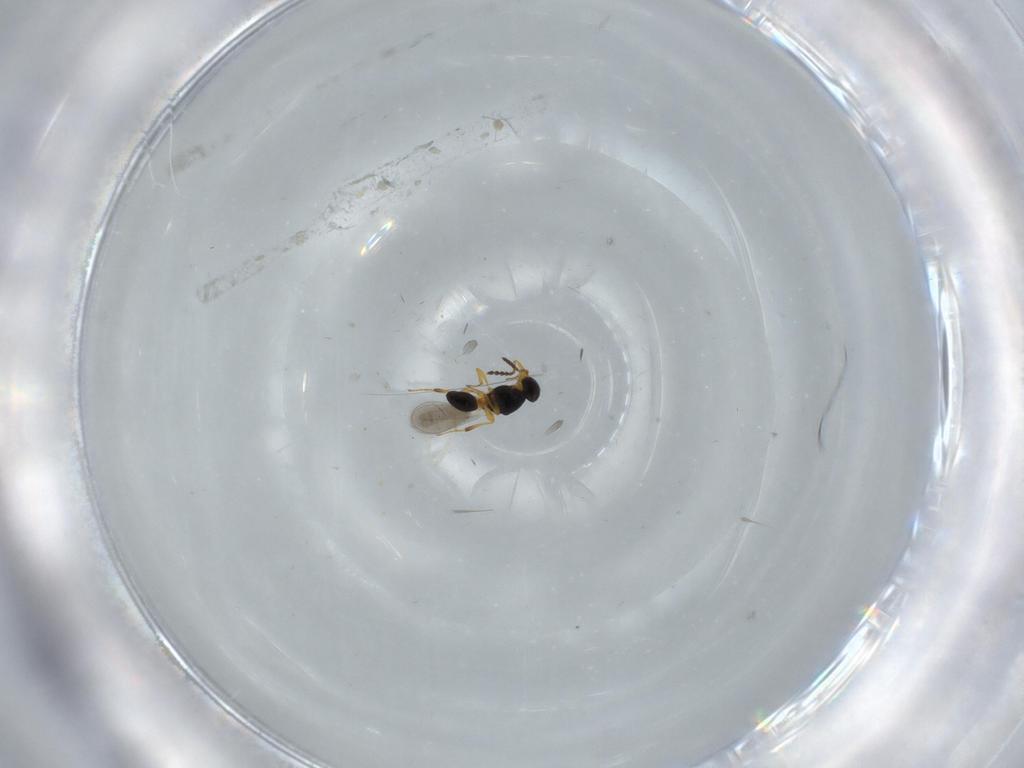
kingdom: Animalia
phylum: Arthropoda
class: Insecta
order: Hymenoptera
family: Platygastridae
